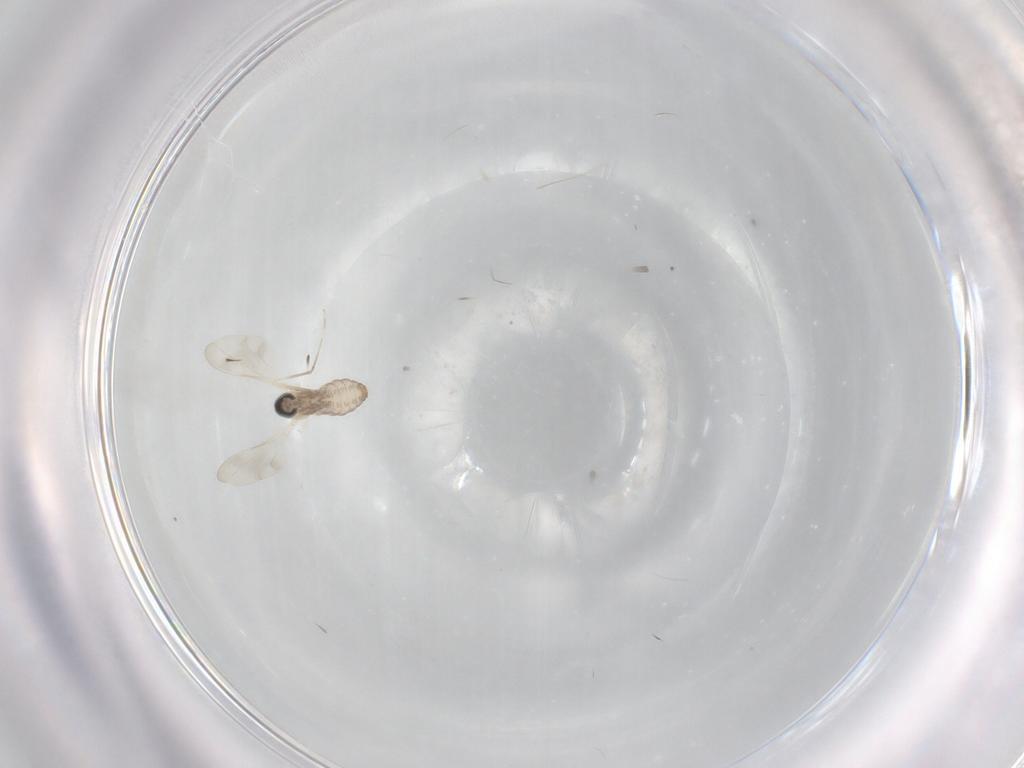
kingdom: Animalia
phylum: Arthropoda
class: Insecta
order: Diptera
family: Cecidomyiidae
